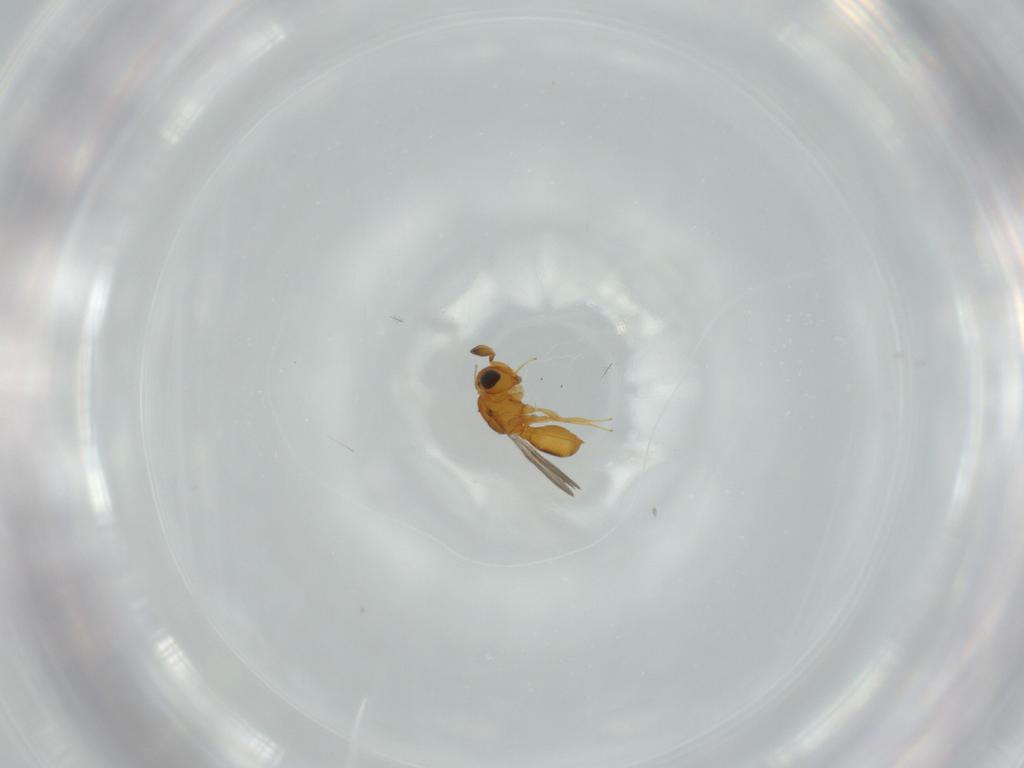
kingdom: Animalia
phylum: Arthropoda
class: Insecta
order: Hymenoptera
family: Scelionidae
